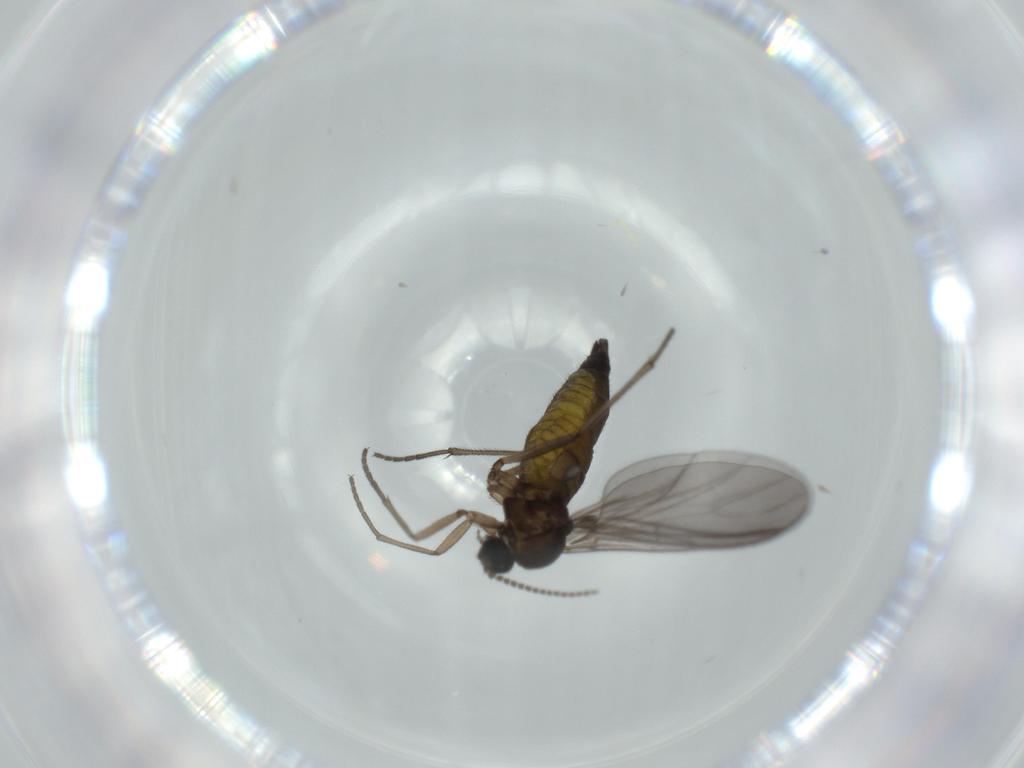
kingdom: Animalia
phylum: Arthropoda
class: Insecta
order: Diptera
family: Sciaridae
